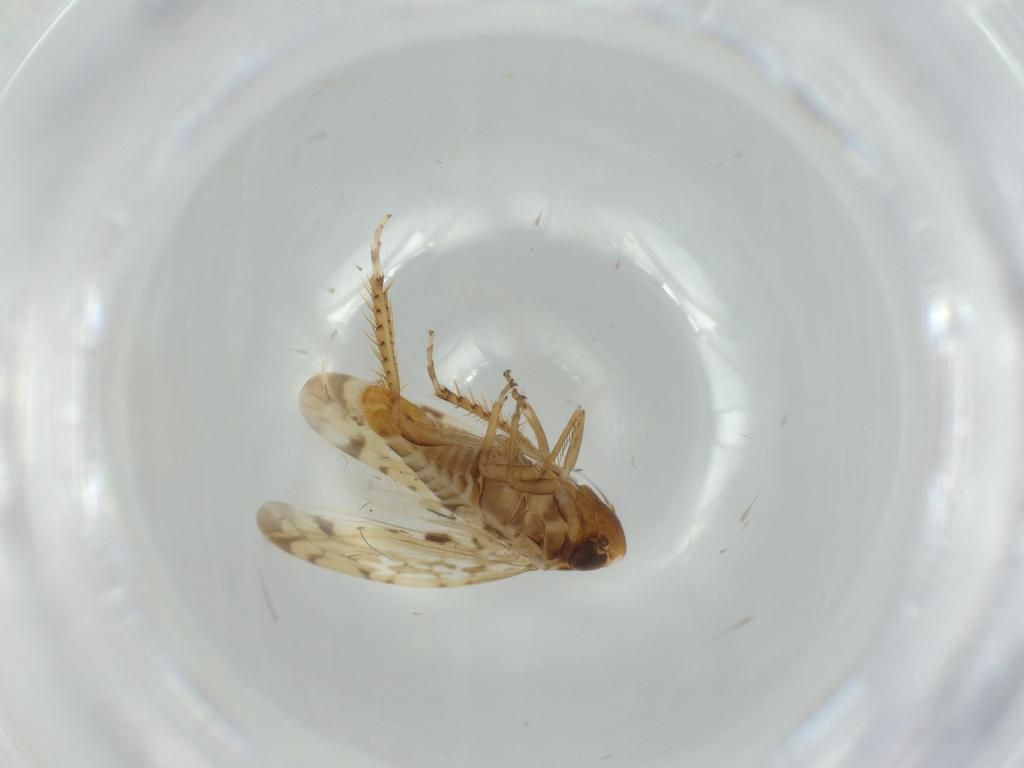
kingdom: Animalia
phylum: Arthropoda
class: Insecta
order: Hemiptera
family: Cicadellidae
